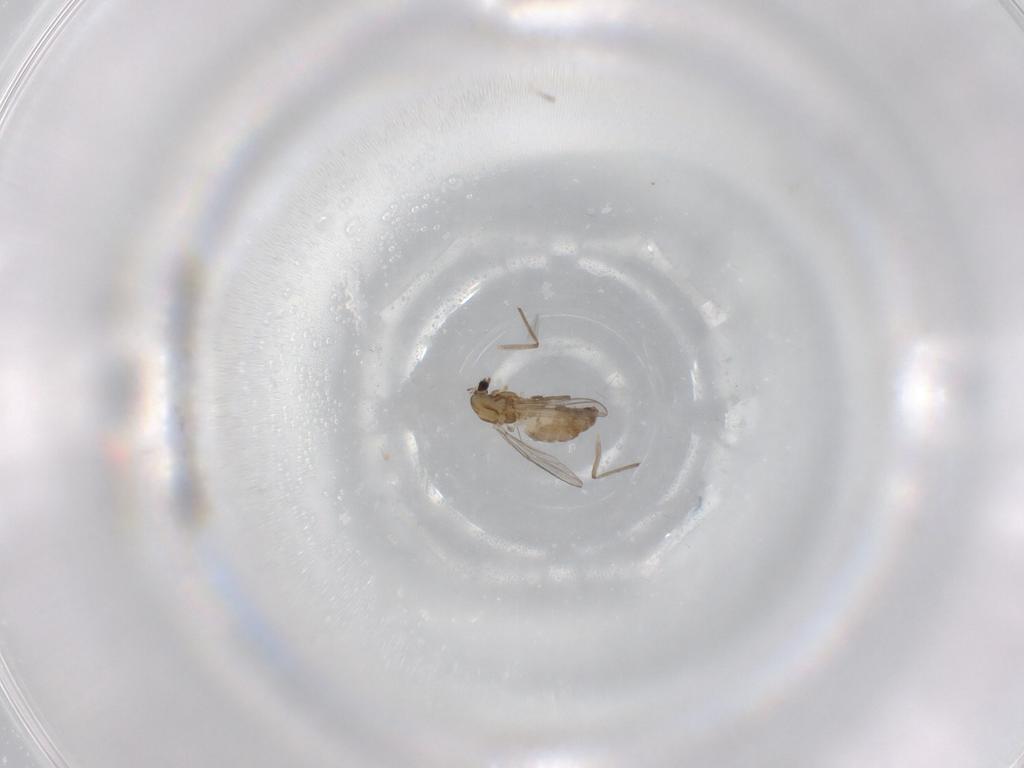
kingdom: Animalia
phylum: Arthropoda
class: Insecta
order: Diptera
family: Chironomidae
